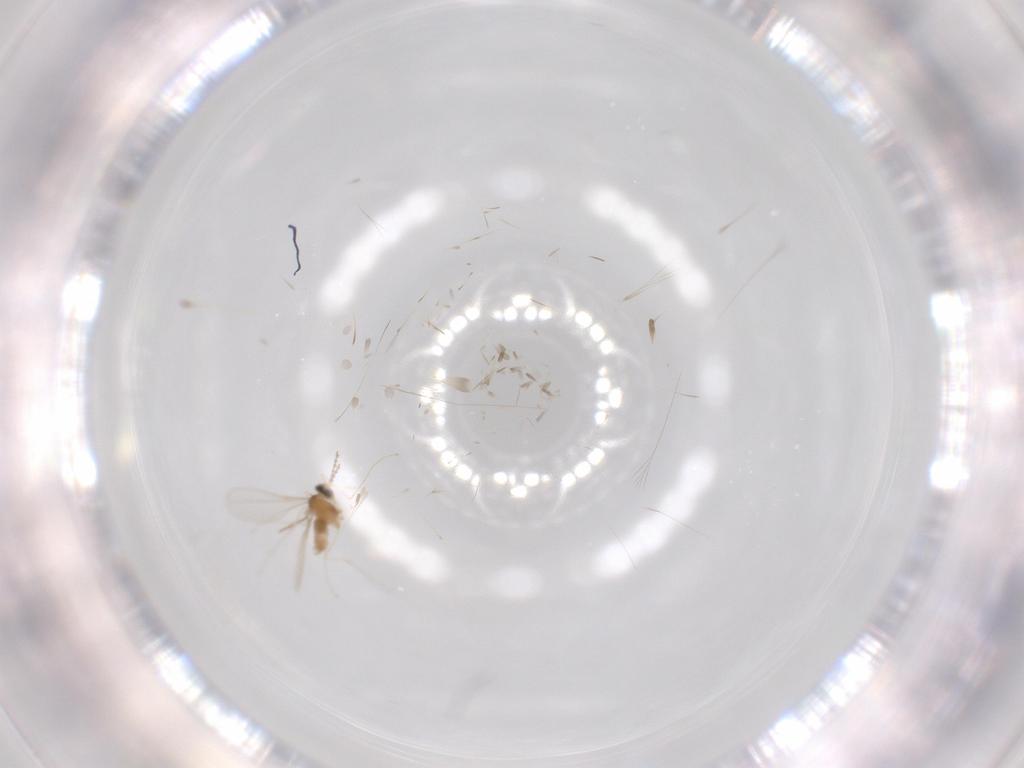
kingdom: Animalia
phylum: Arthropoda
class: Insecta
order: Diptera
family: Cecidomyiidae
